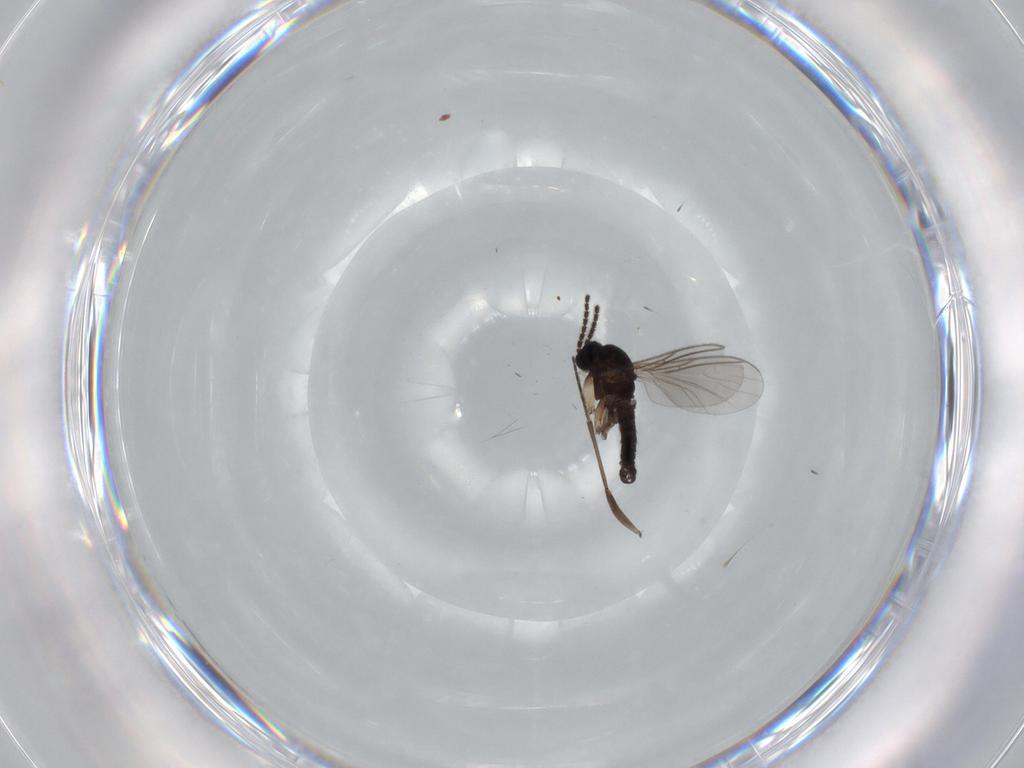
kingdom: Animalia
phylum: Arthropoda
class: Insecta
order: Diptera
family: Sciaridae
